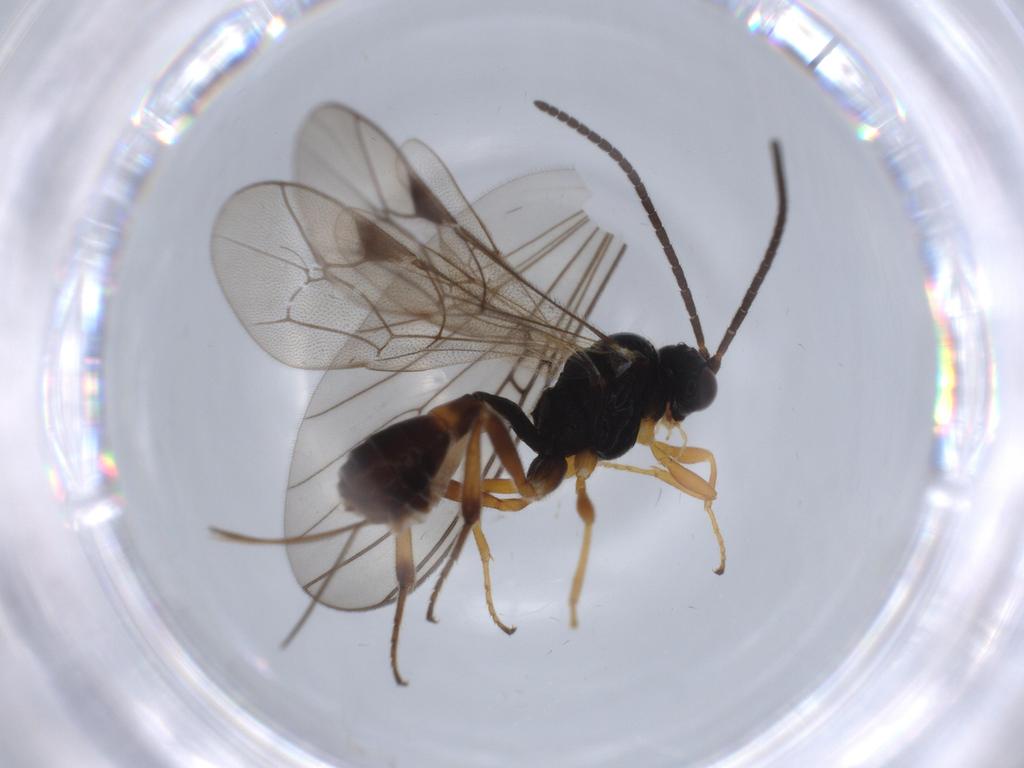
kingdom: Animalia
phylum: Arthropoda
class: Insecta
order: Hymenoptera
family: Ichneumonidae
